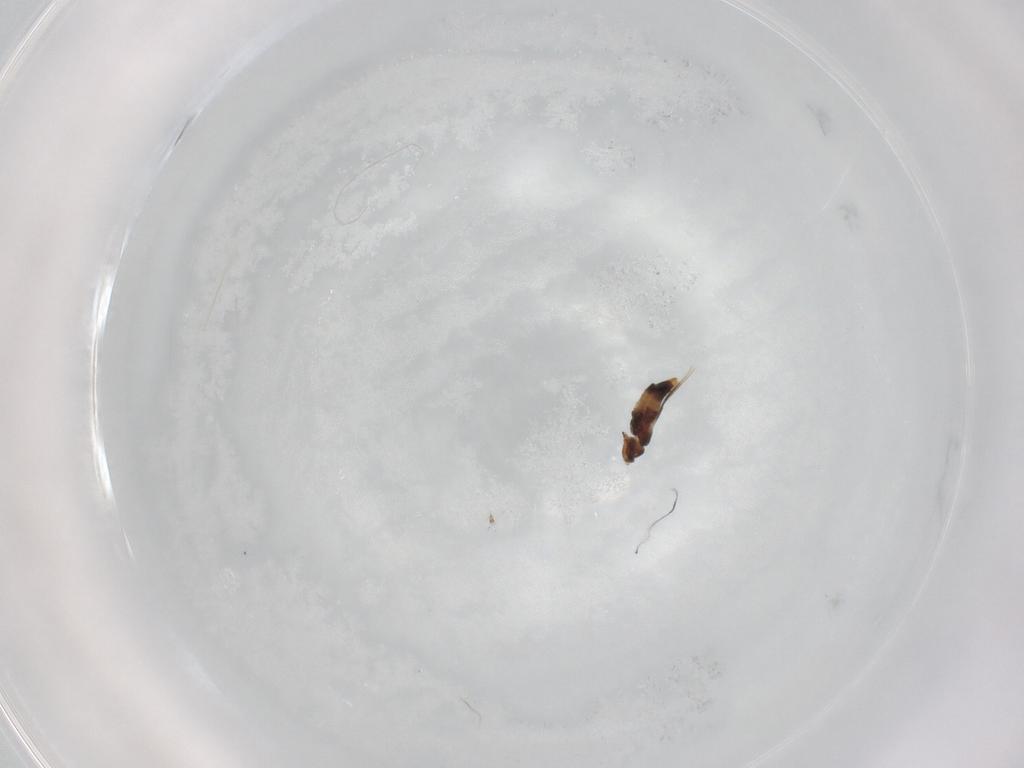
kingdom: Animalia
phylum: Arthropoda
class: Insecta
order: Thysanoptera
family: Thripidae
